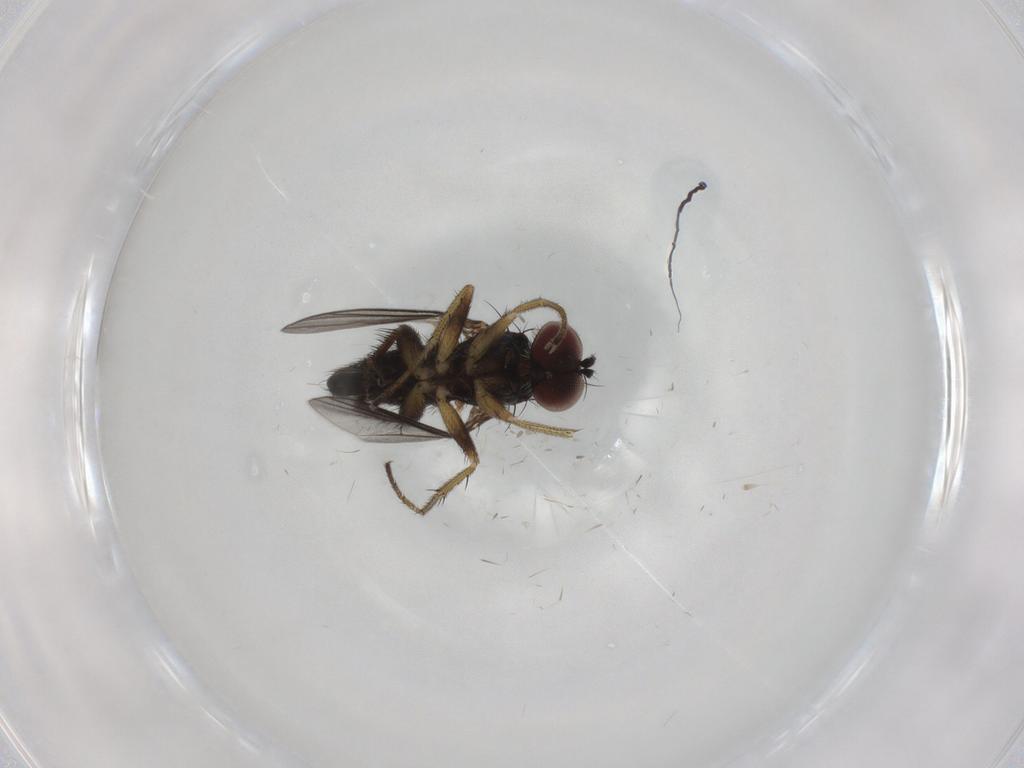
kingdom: Animalia
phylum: Arthropoda
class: Insecta
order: Diptera
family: Dolichopodidae
